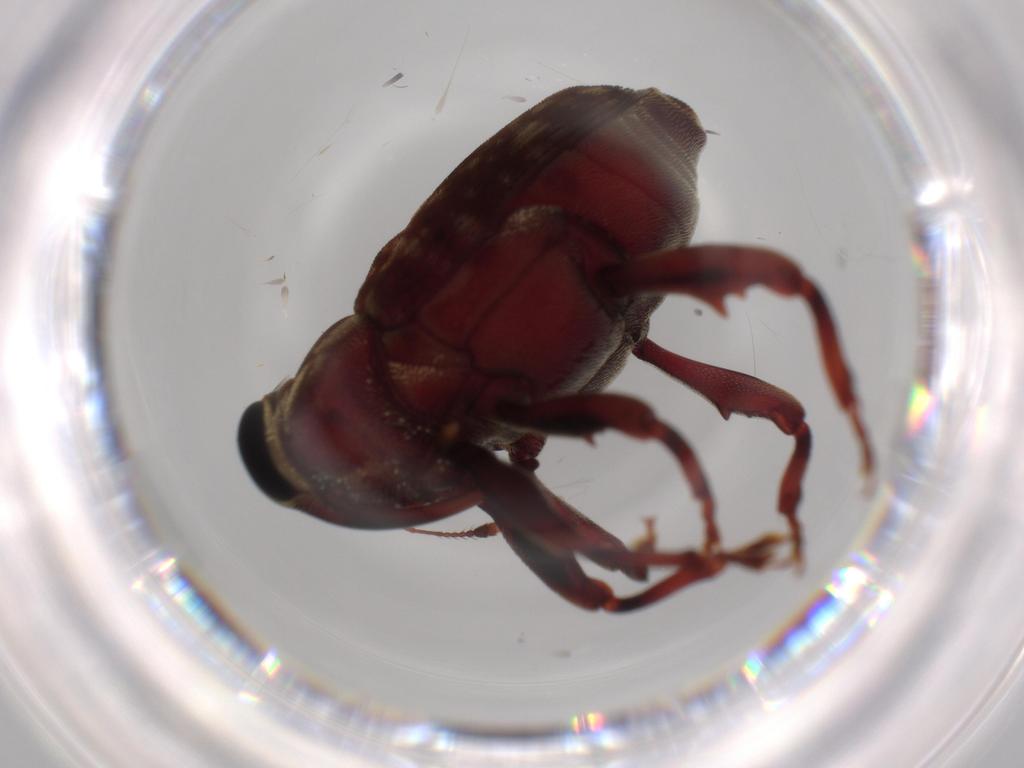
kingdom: Animalia
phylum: Arthropoda
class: Insecta
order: Coleoptera
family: Curculionidae
